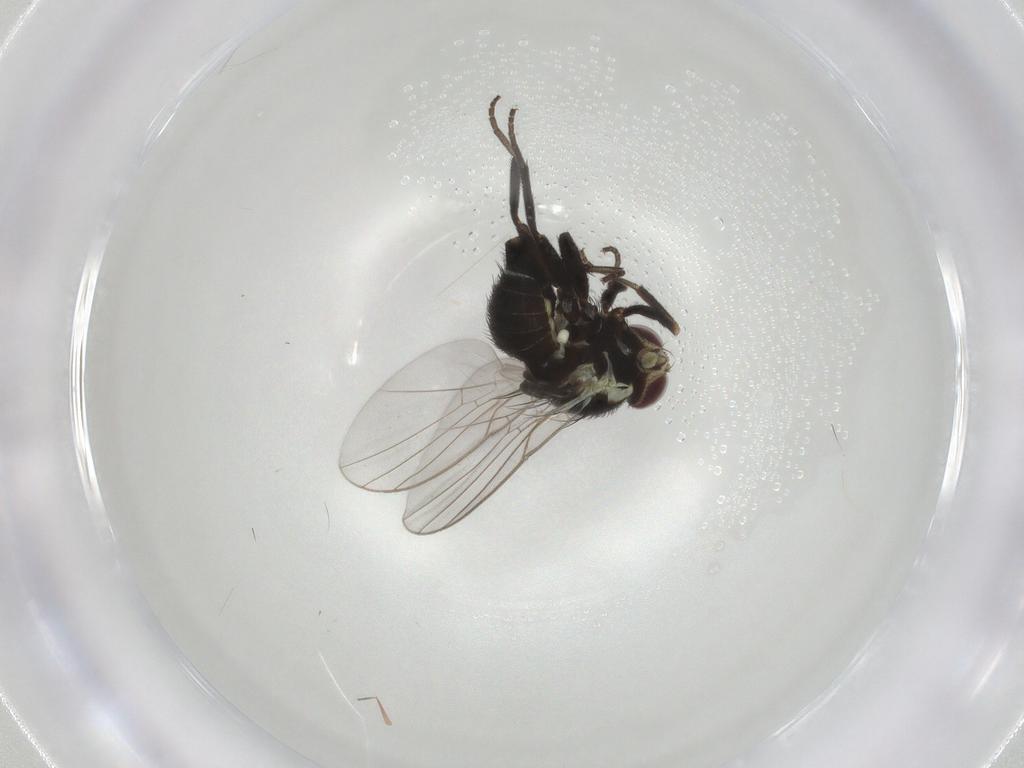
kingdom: Animalia
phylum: Arthropoda
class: Insecta
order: Diptera
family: Agromyzidae
